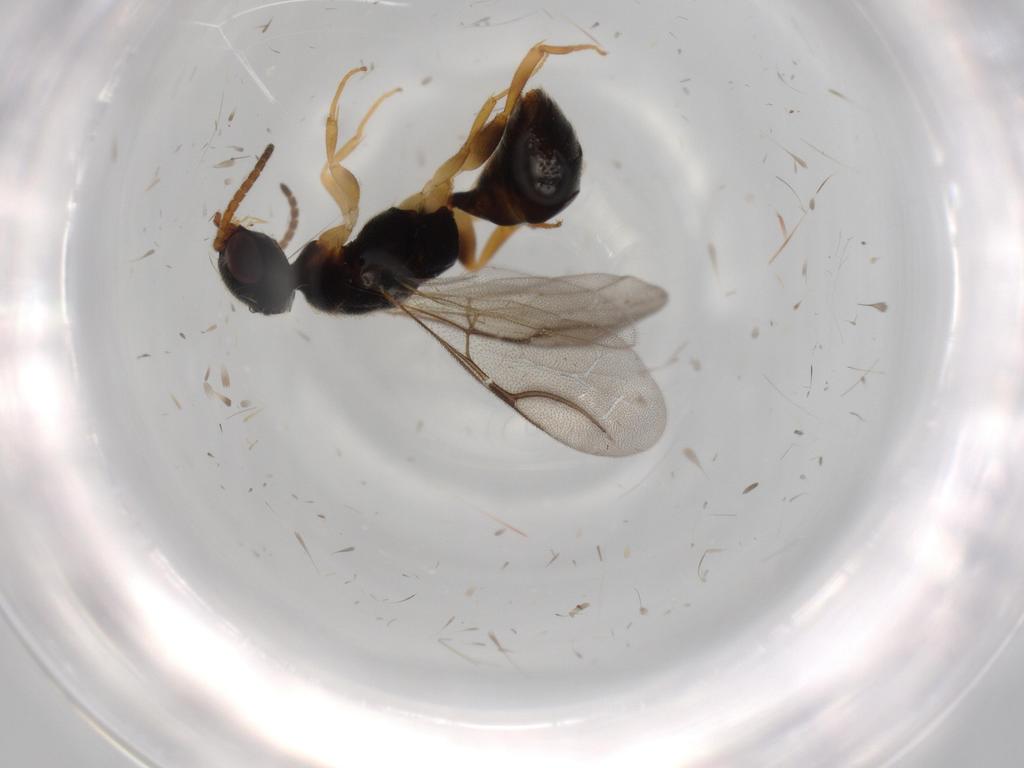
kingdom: Animalia
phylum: Arthropoda
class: Insecta
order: Hymenoptera
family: Bethylidae
